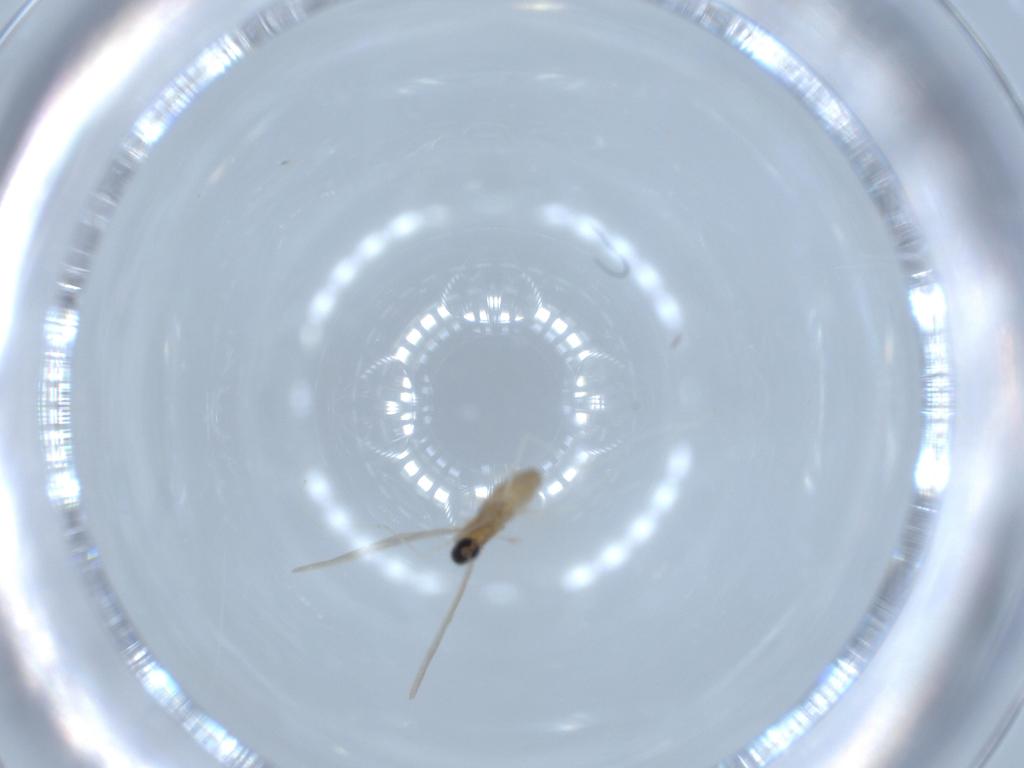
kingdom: Animalia
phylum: Arthropoda
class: Insecta
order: Diptera
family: Cecidomyiidae
